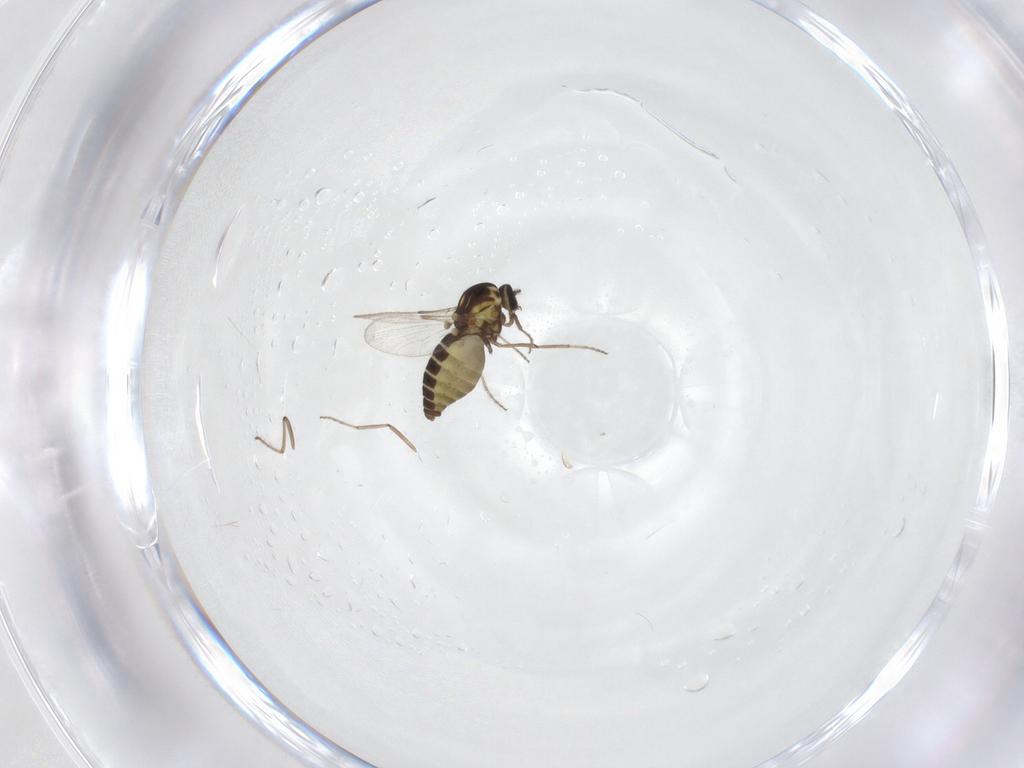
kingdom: Animalia
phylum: Arthropoda
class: Insecta
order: Diptera
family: Ceratopogonidae
